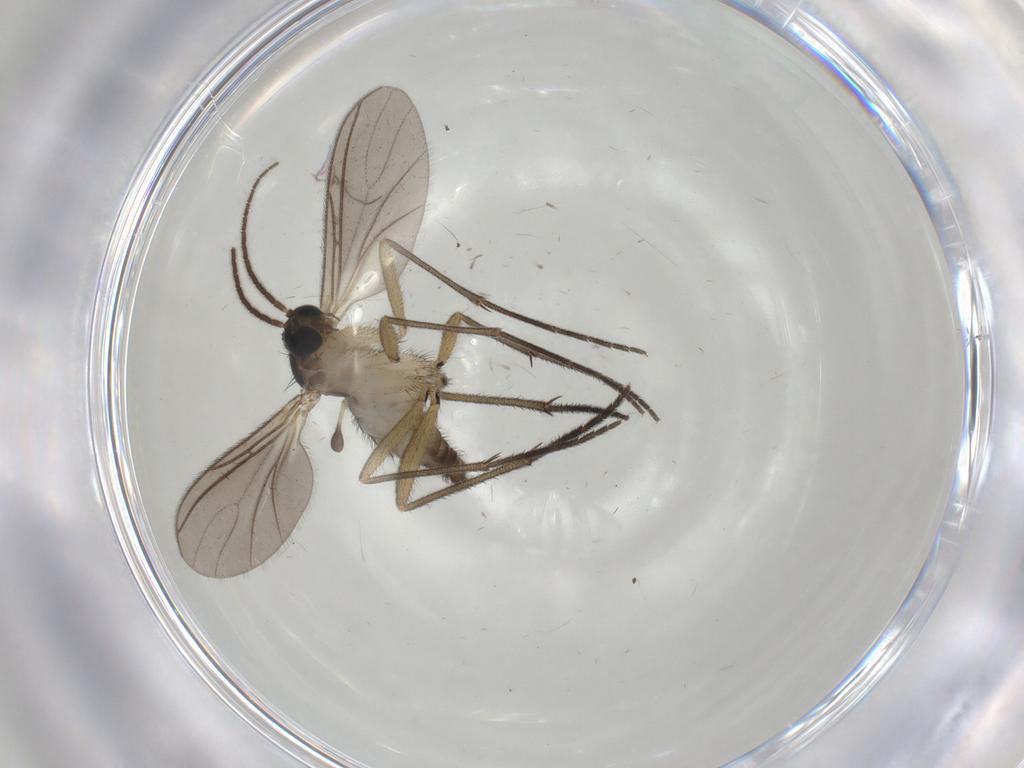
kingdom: Animalia
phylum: Arthropoda
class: Insecta
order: Diptera
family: Sciaridae
